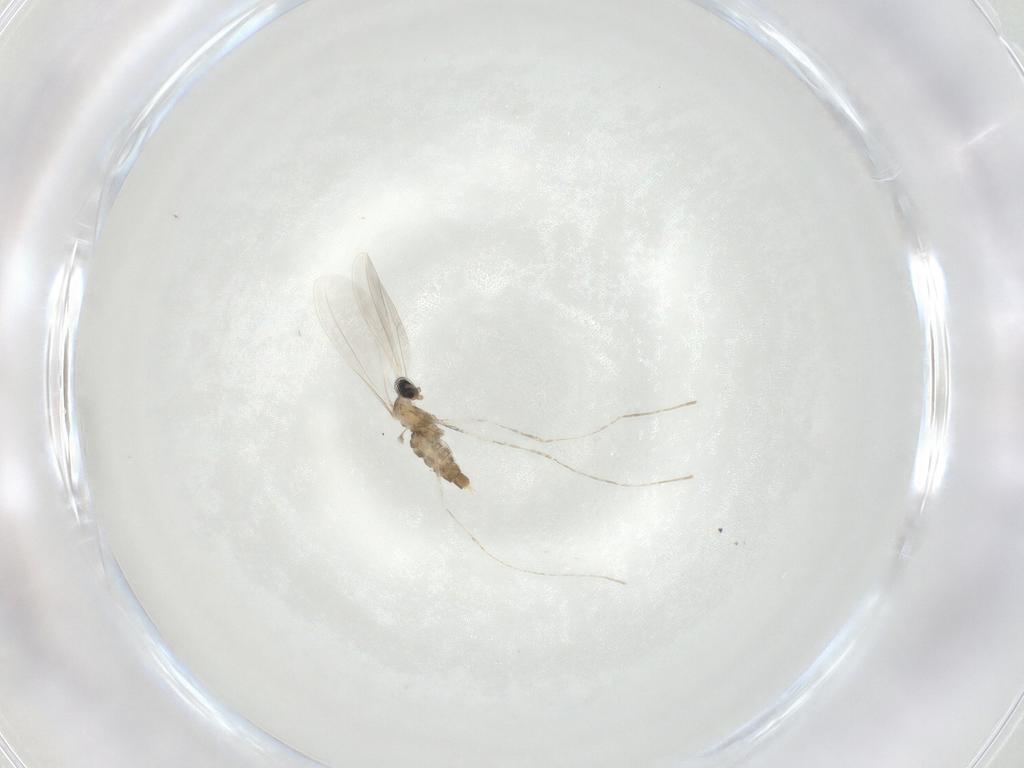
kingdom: Animalia
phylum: Arthropoda
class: Insecta
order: Diptera
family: Cecidomyiidae
